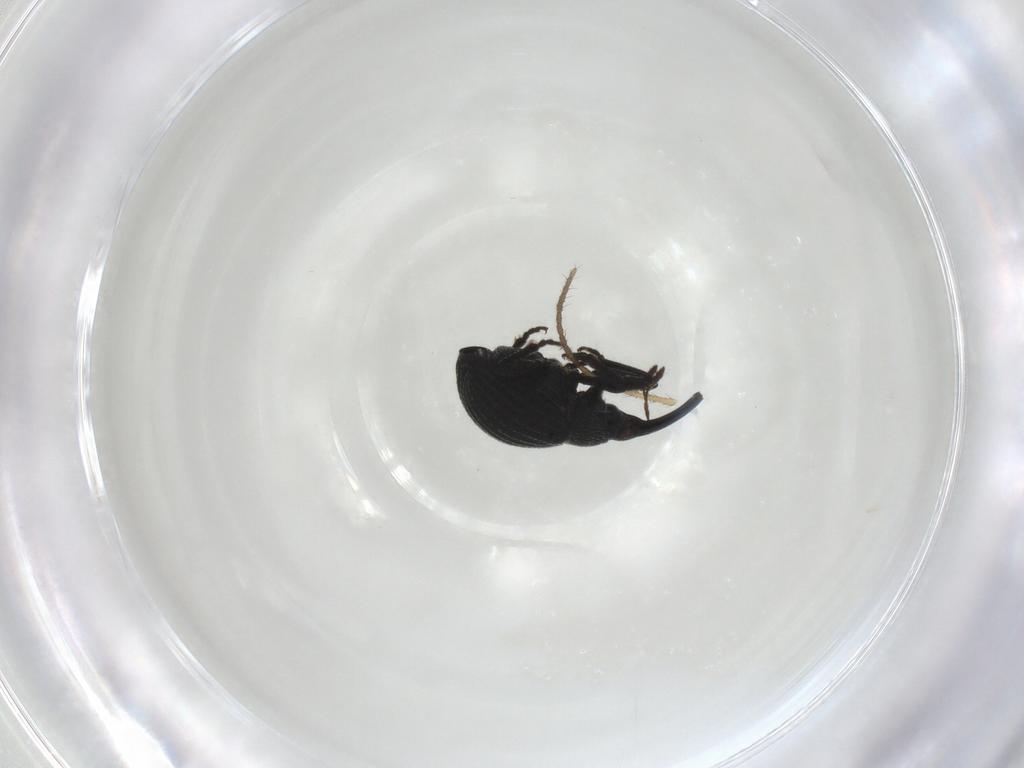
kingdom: Animalia
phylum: Arthropoda
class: Insecta
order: Coleoptera
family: Brentidae
